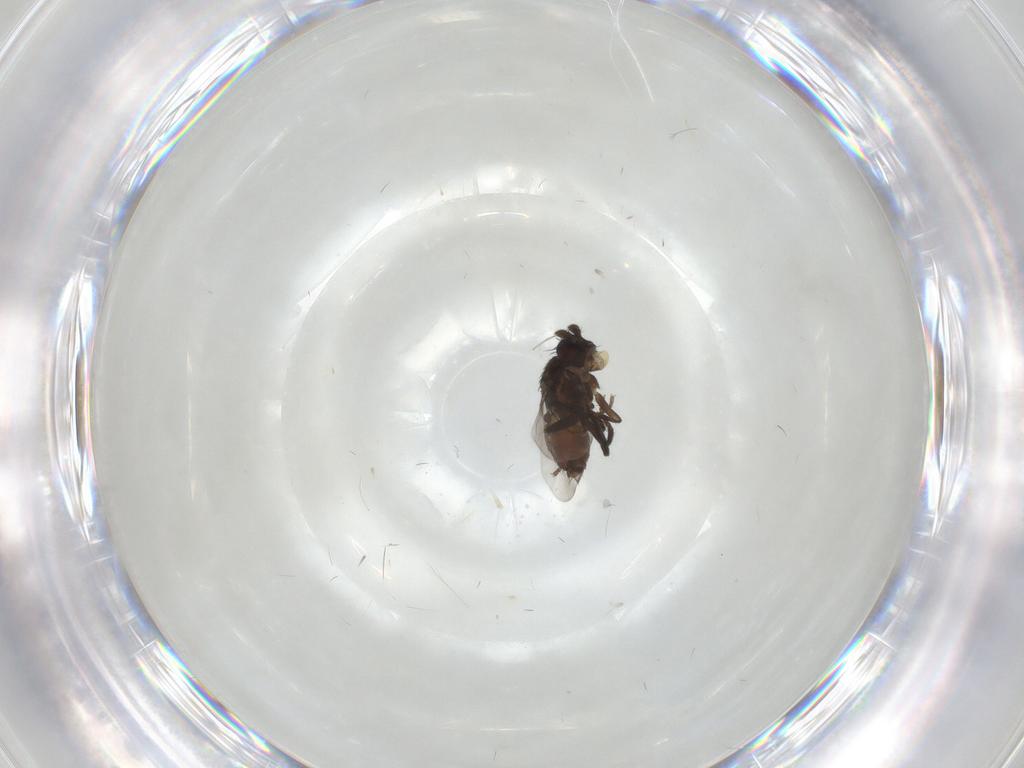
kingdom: Animalia
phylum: Arthropoda
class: Insecta
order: Diptera
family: Sphaeroceridae
